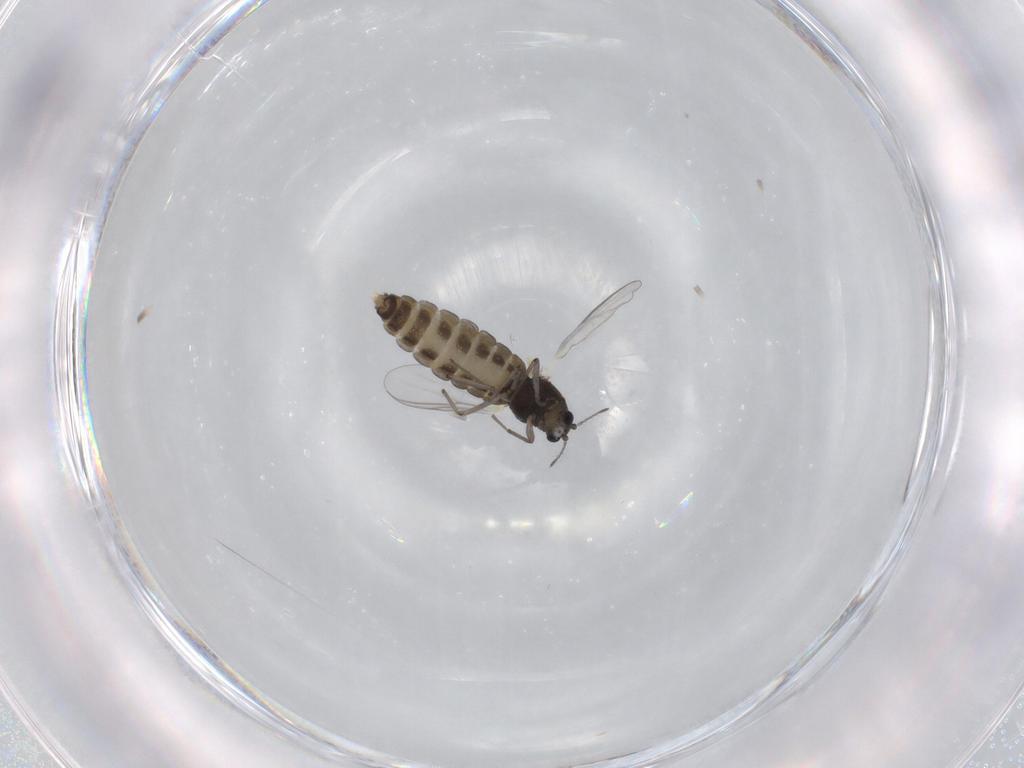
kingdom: Animalia
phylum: Arthropoda
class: Insecta
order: Diptera
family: Chironomidae
